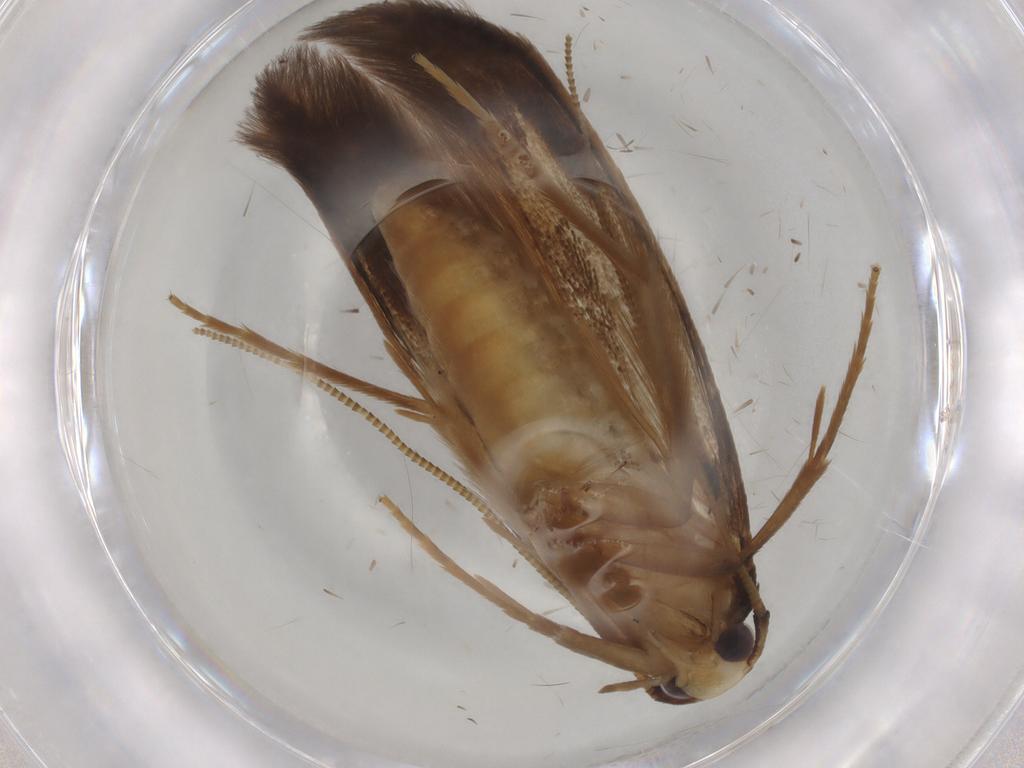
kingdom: Animalia
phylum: Arthropoda
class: Insecta
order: Lepidoptera
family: Tineidae
